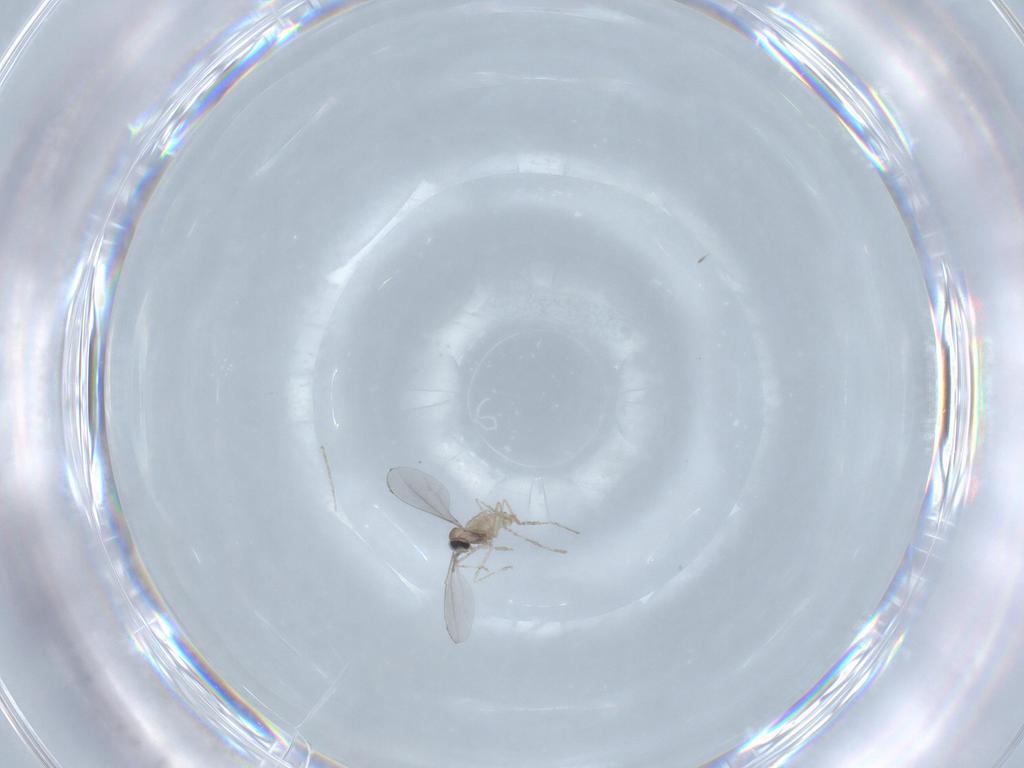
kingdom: Animalia
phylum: Arthropoda
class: Insecta
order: Diptera
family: Cecidomyiidae
